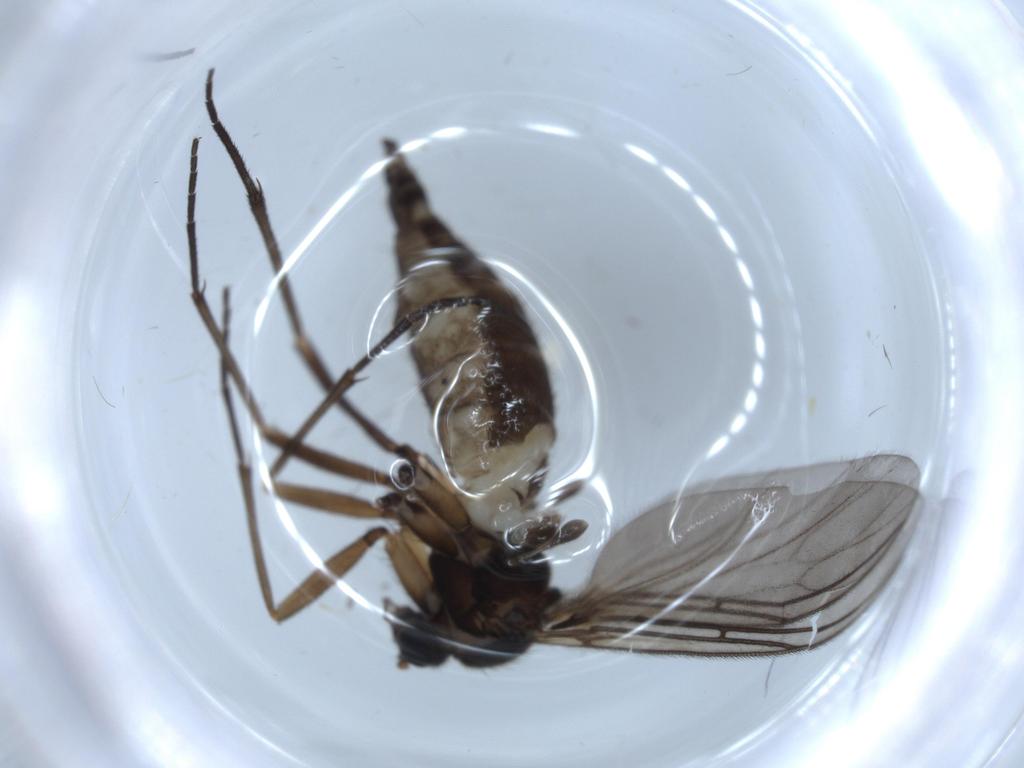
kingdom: Animalia
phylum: Arthropoda
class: Insecta
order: Diptera
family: Sciaridae
